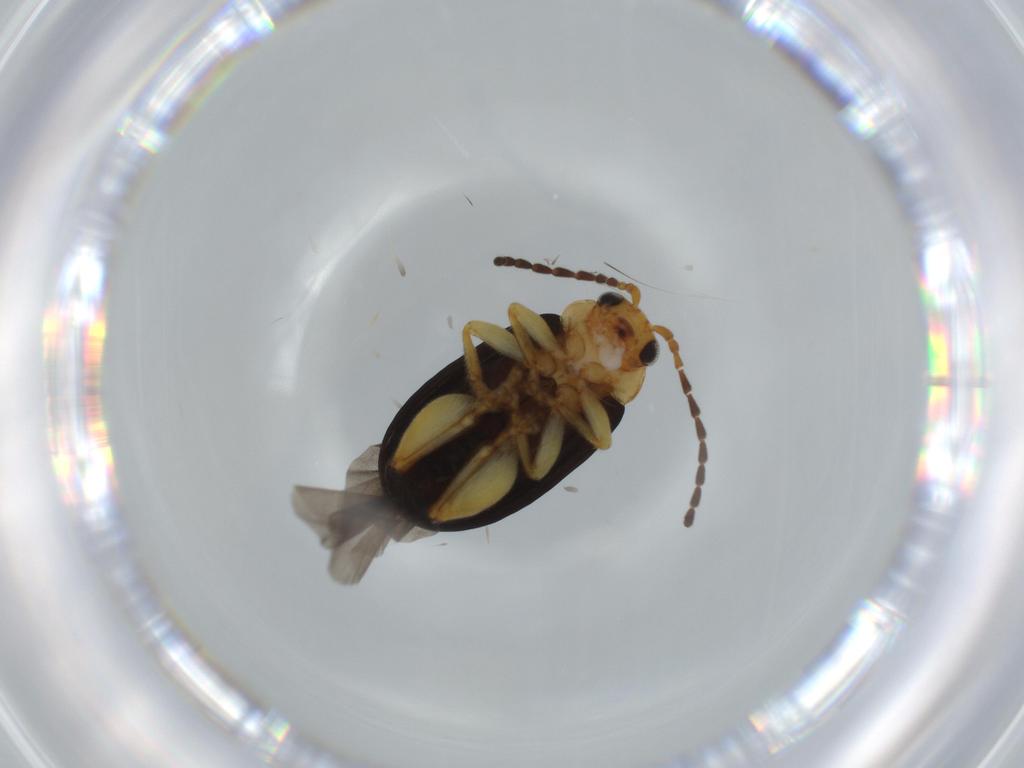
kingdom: Animalia
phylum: Arthropoda
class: Insecta
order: Coleoptera
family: Chrysomelidae
